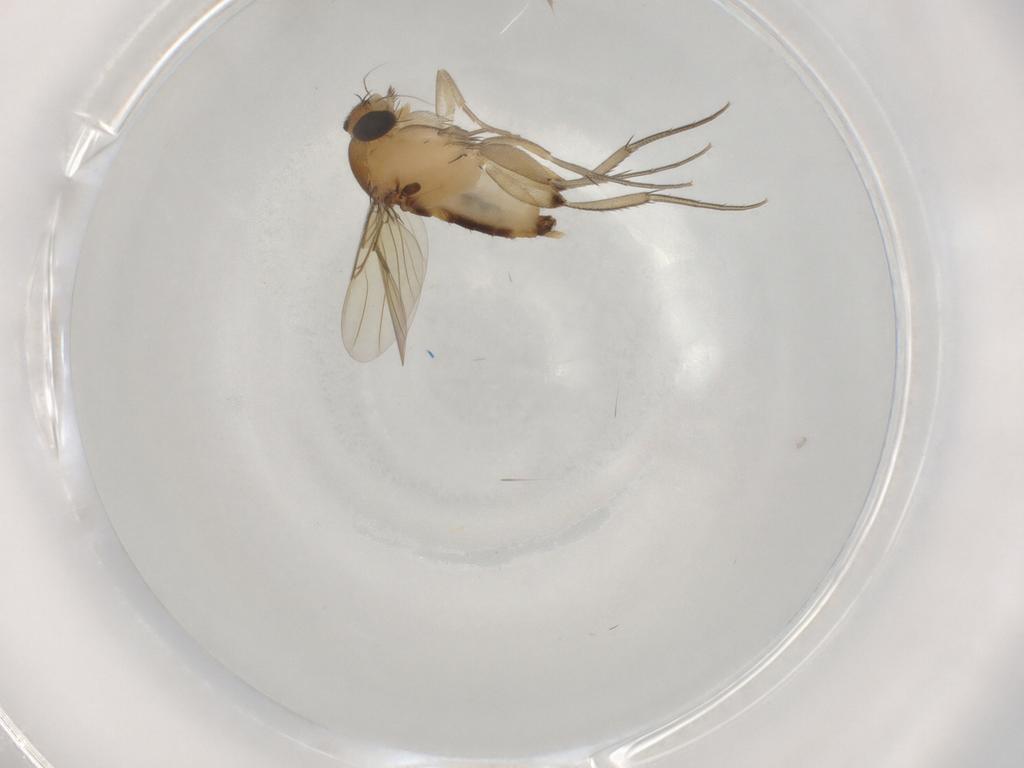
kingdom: Animalia
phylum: Arthropoda
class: Insecta
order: Diptera
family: Phoridae
